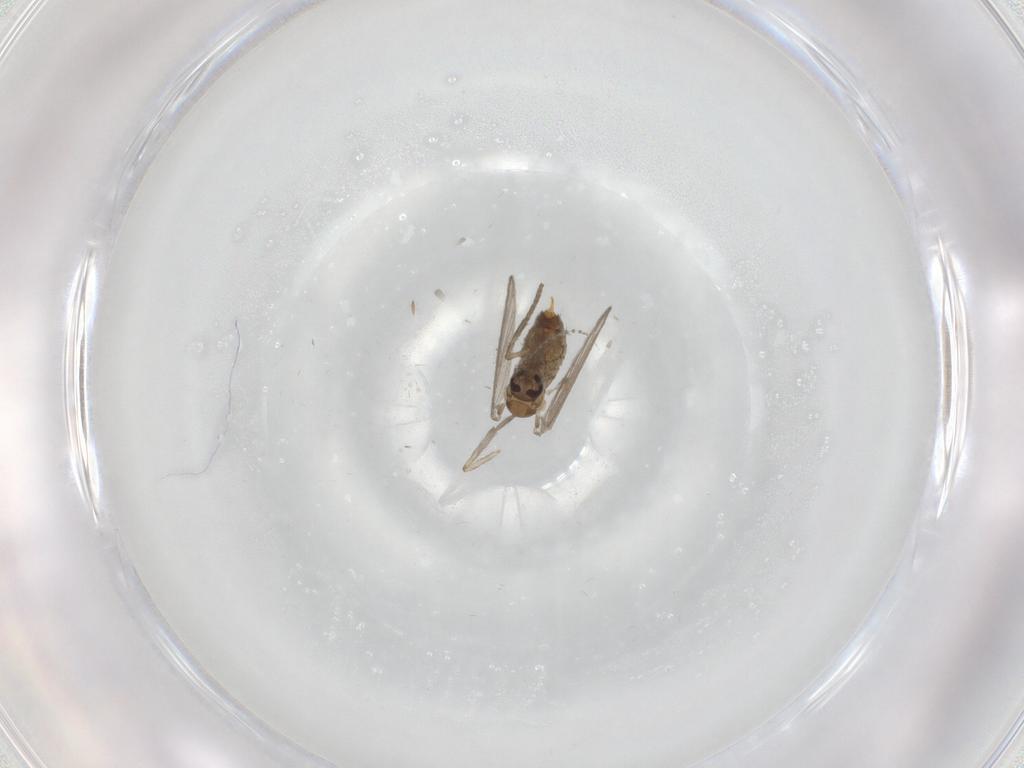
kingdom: Animalia
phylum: Arthropoda
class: Insecta
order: Diptera
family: Psychodidae
